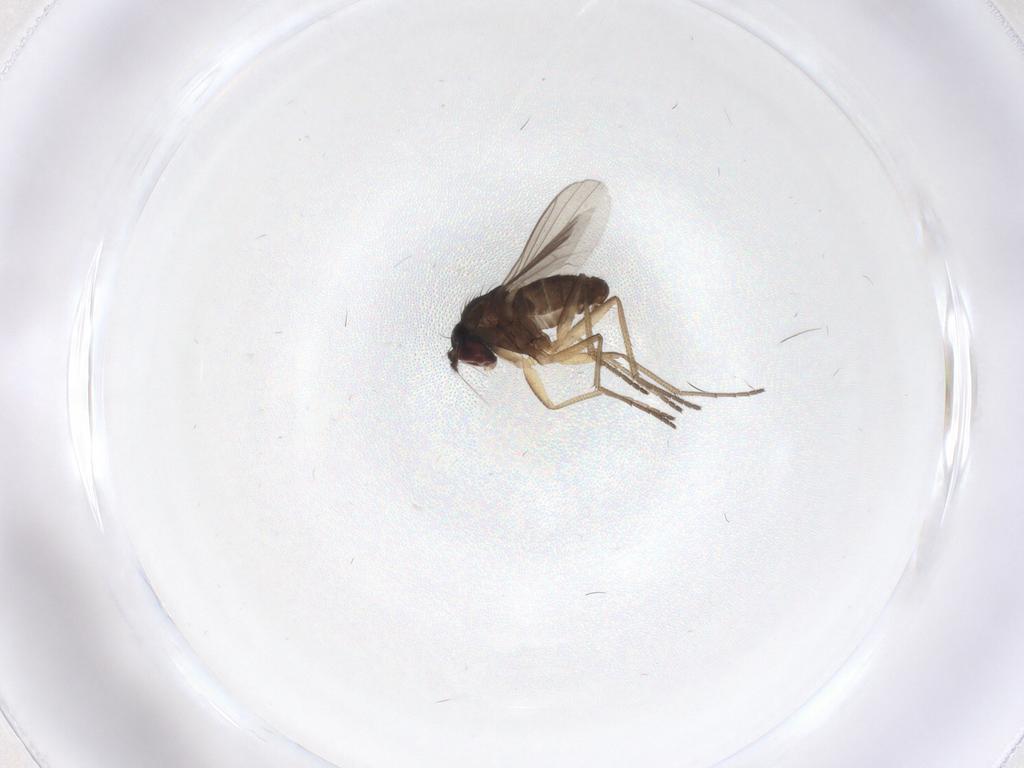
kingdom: Animalia
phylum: Arthropoda
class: Insecta
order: Diptera
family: Dolichopodidae
